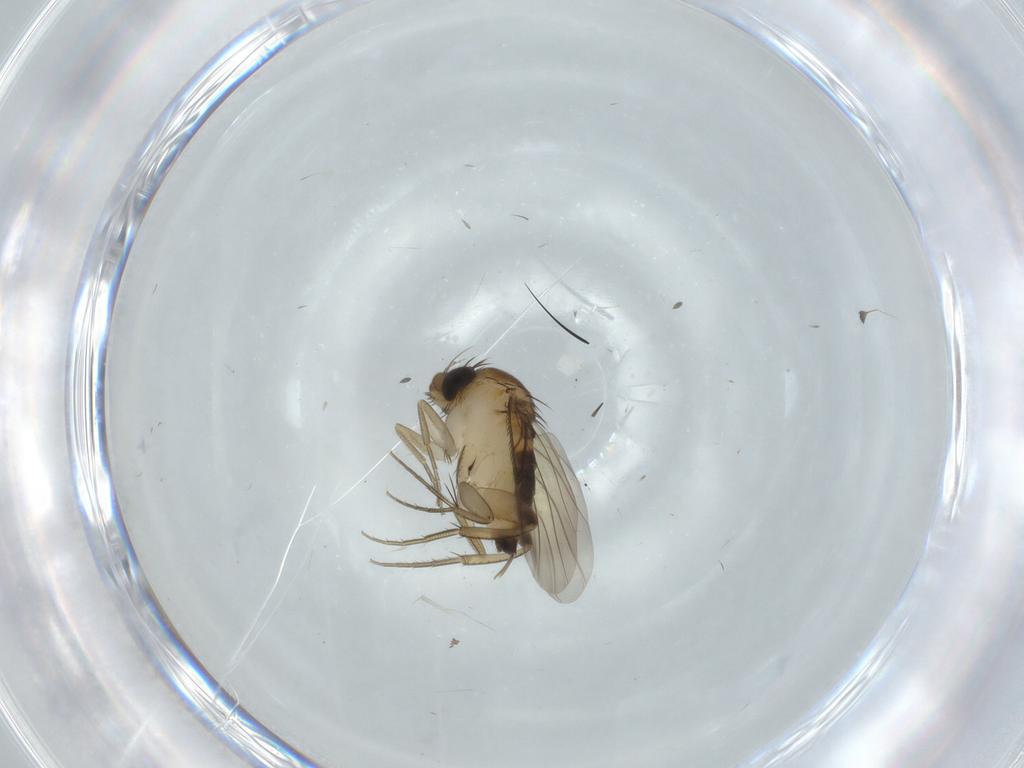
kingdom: Animalia
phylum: Arthropoda
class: Insecta
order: Diptera
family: Phoridae
